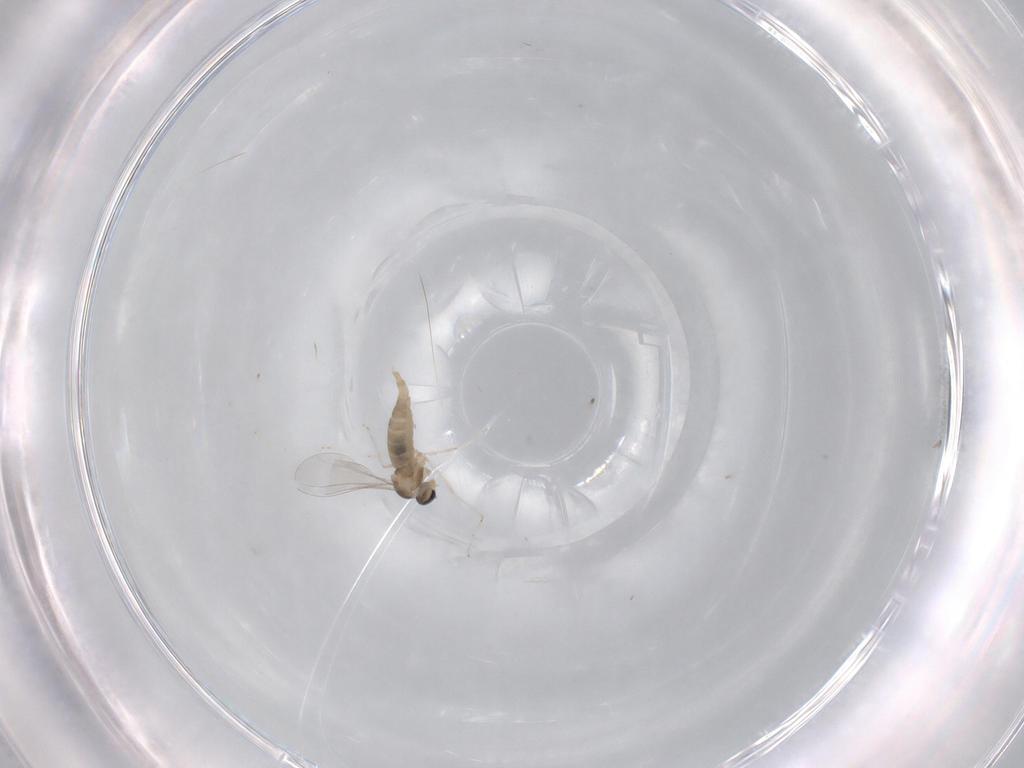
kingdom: Animalia
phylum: Arthropoda
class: Insecta
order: Diptera
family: Cecidomyiidae
